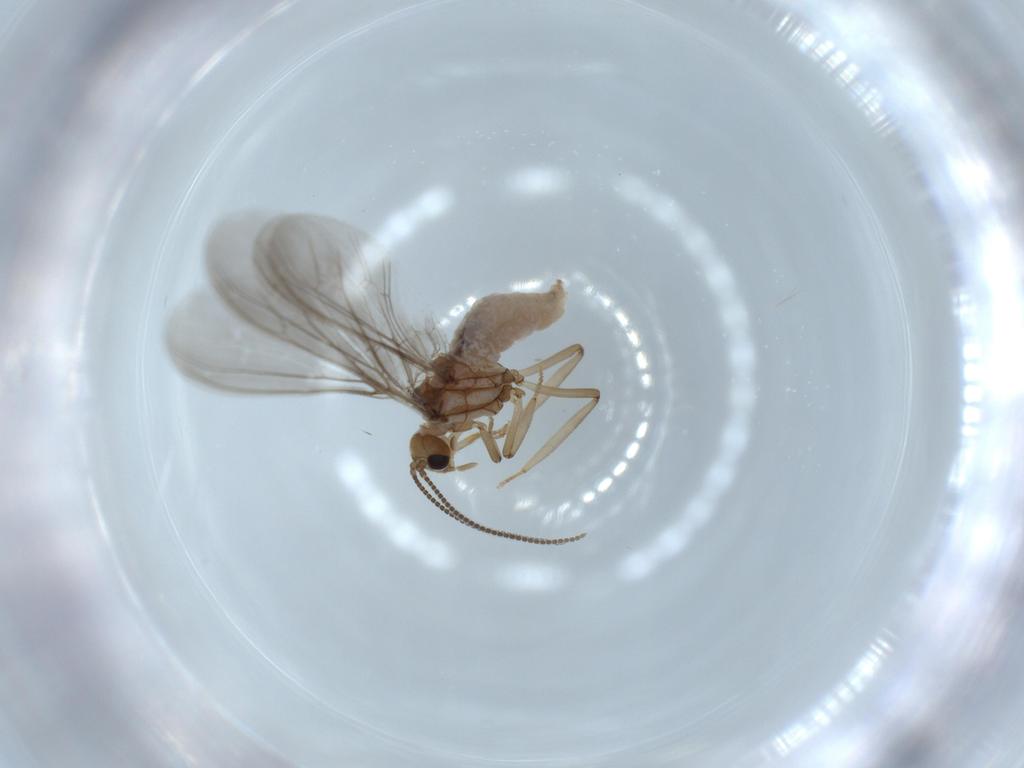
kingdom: Animalia
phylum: Arthropoda
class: Insecta
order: Neuroptera
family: Coniopterygidae
